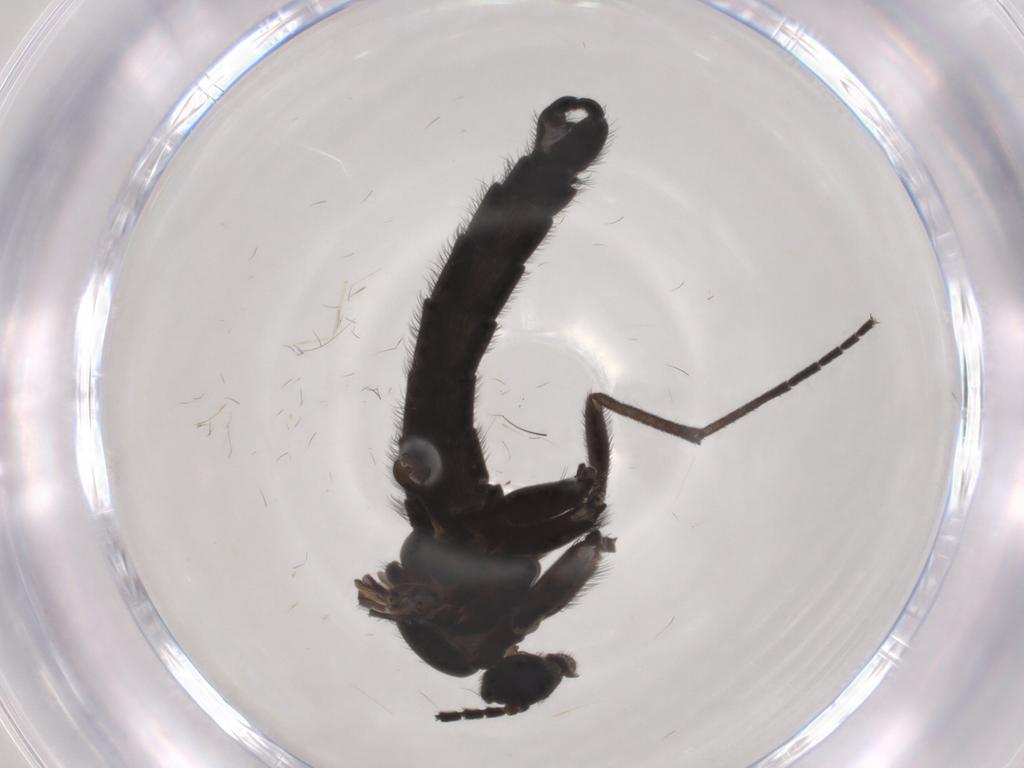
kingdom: Animalia
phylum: Arthropoda
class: Insecta
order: Diptera
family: Sciaridae
